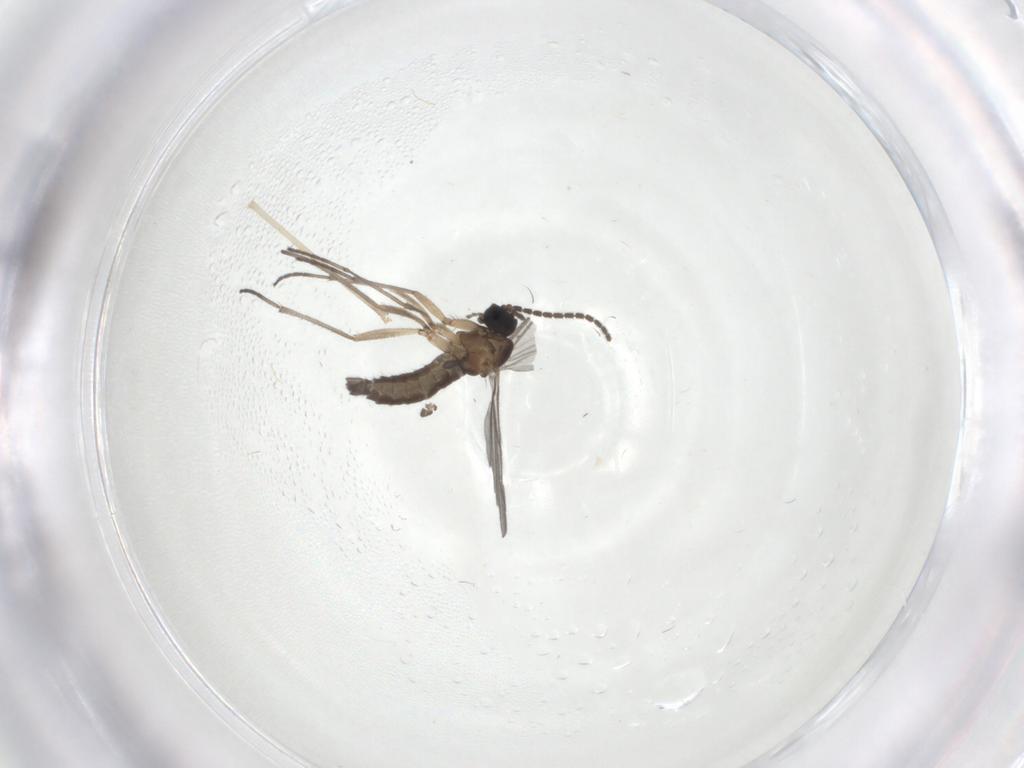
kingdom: Animalia
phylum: Arthropoda
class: Insecta
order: Diptera
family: Sciaridae
